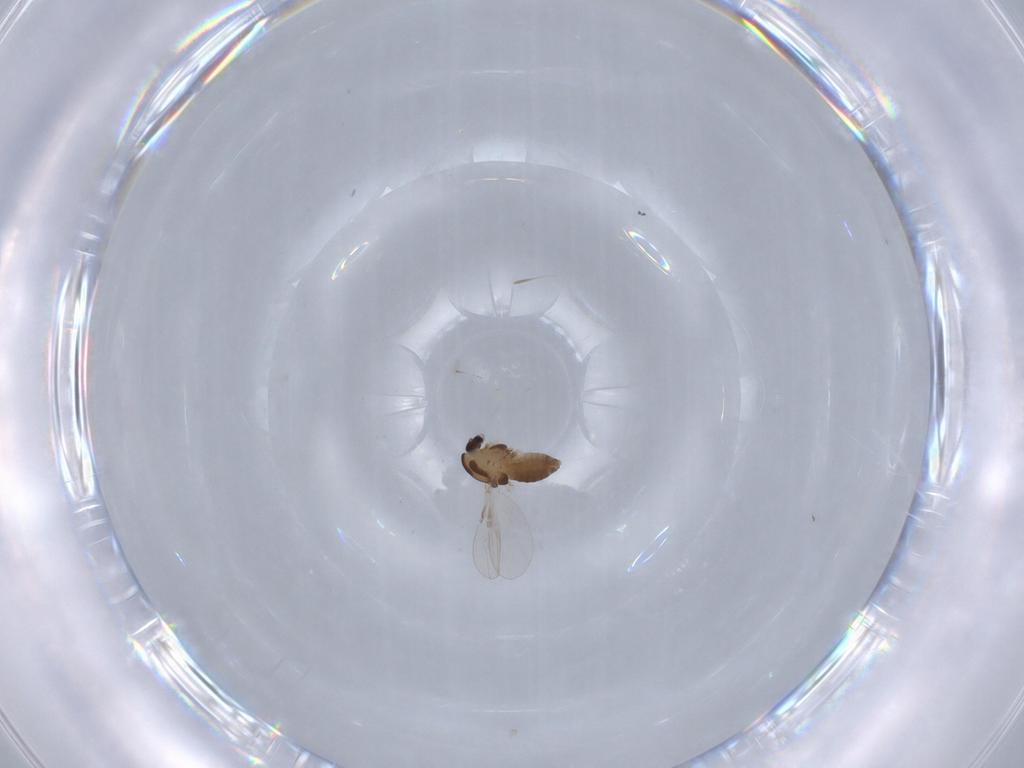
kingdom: Animalia
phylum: Arthropoda
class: Insecta
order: Diptera
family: Chironomidae
